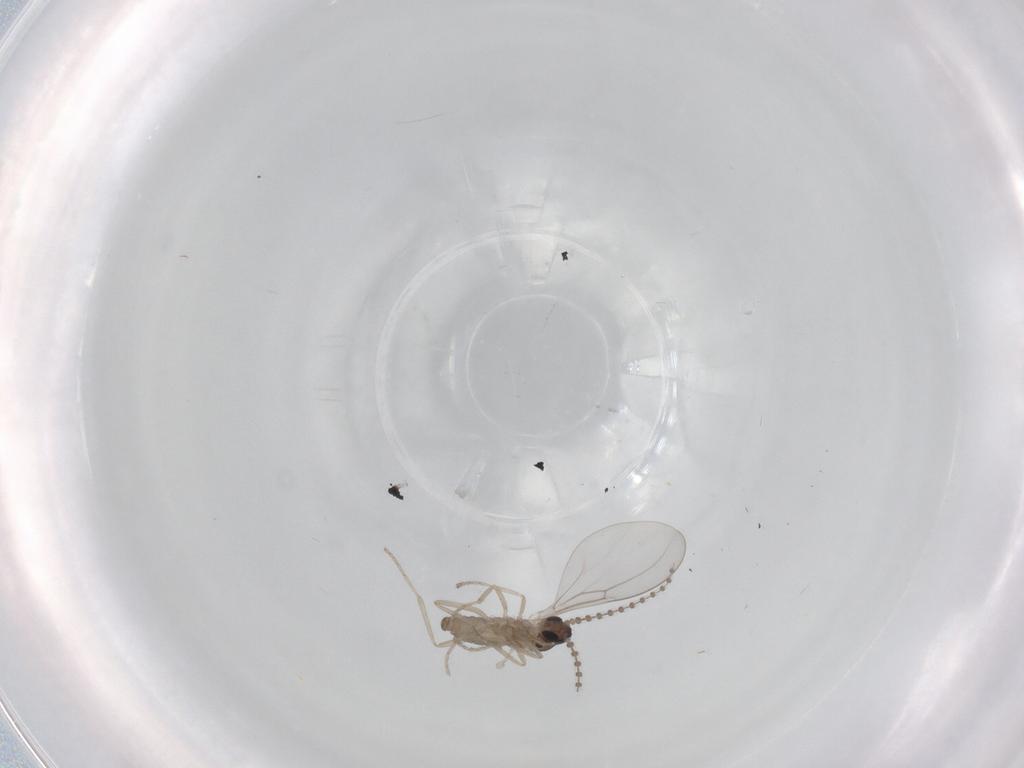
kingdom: Animalia
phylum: Arthropoda
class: Insecta
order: Diptera
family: Cecidomyiidae
